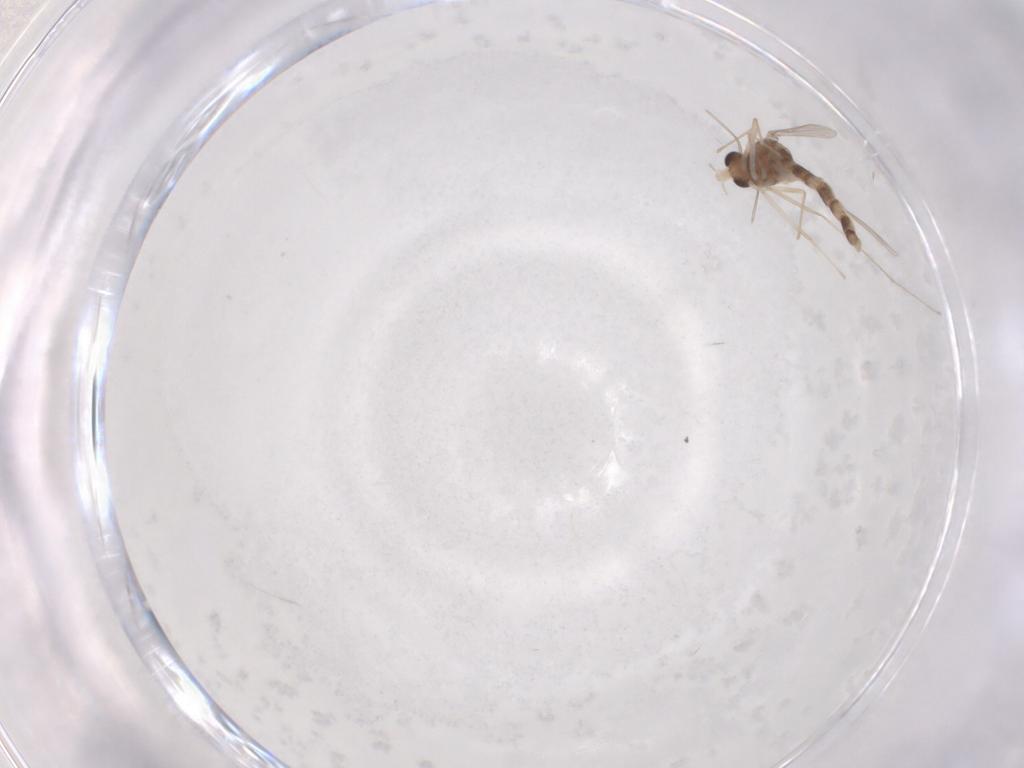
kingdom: Animalia
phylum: Arthropoda
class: Insecta
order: Diptera
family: Chironomidae
